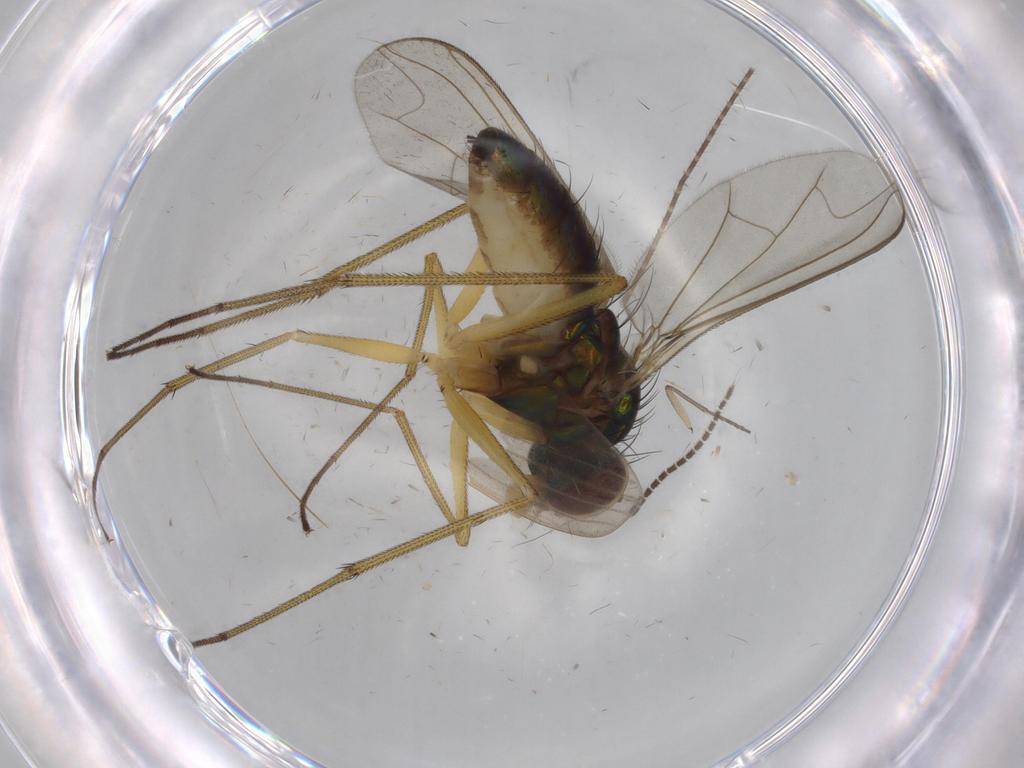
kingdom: Animalia
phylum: Arthropoda
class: Insecta
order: Diptera
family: Dolichopodidae
